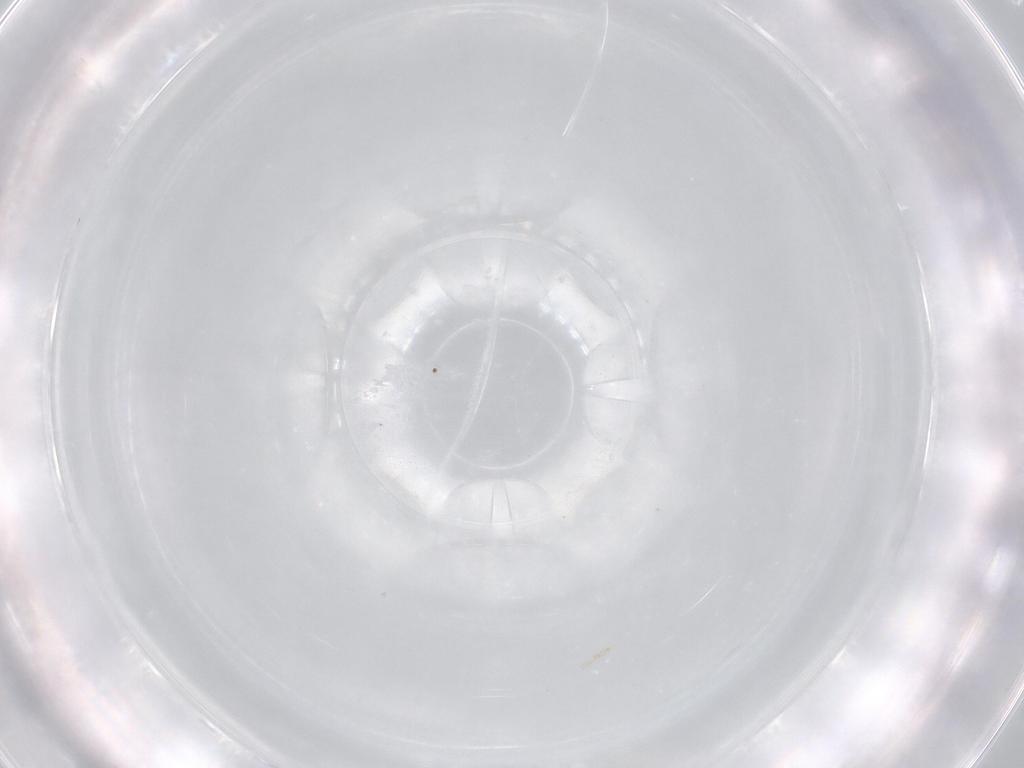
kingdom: Animalia
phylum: Arthropoda
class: Insecta
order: Diptera
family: Cecidomyiidae
